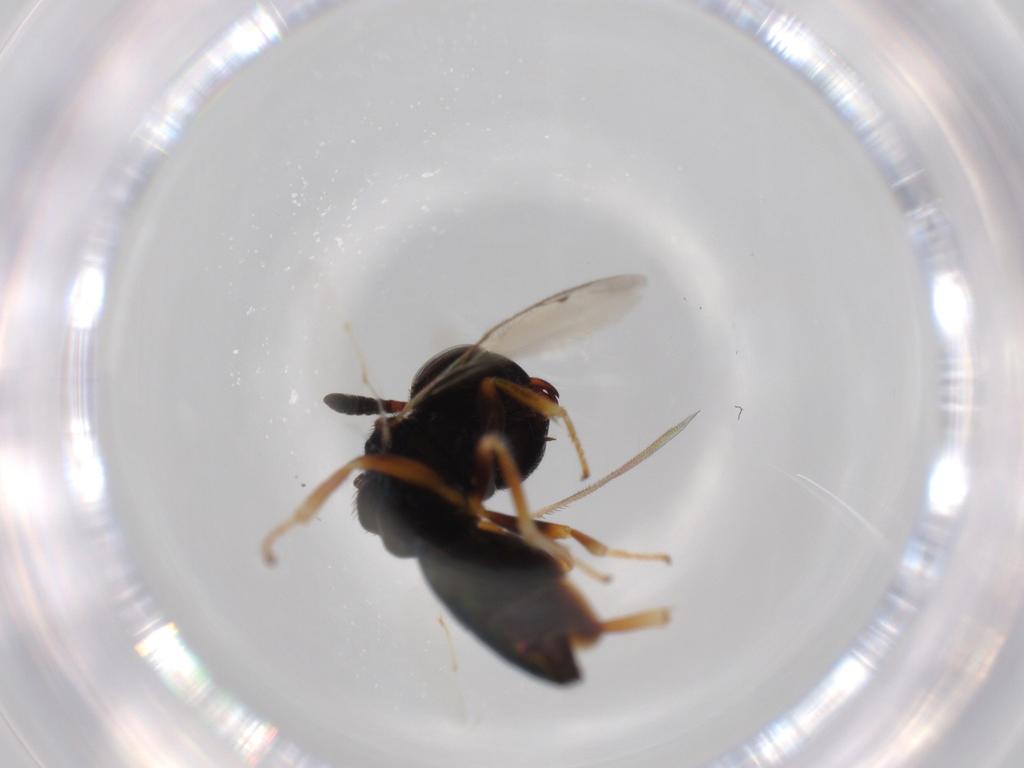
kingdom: Animalia
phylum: Arthropoda
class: Insecta
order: Hymenoptera
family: Agaonidae
